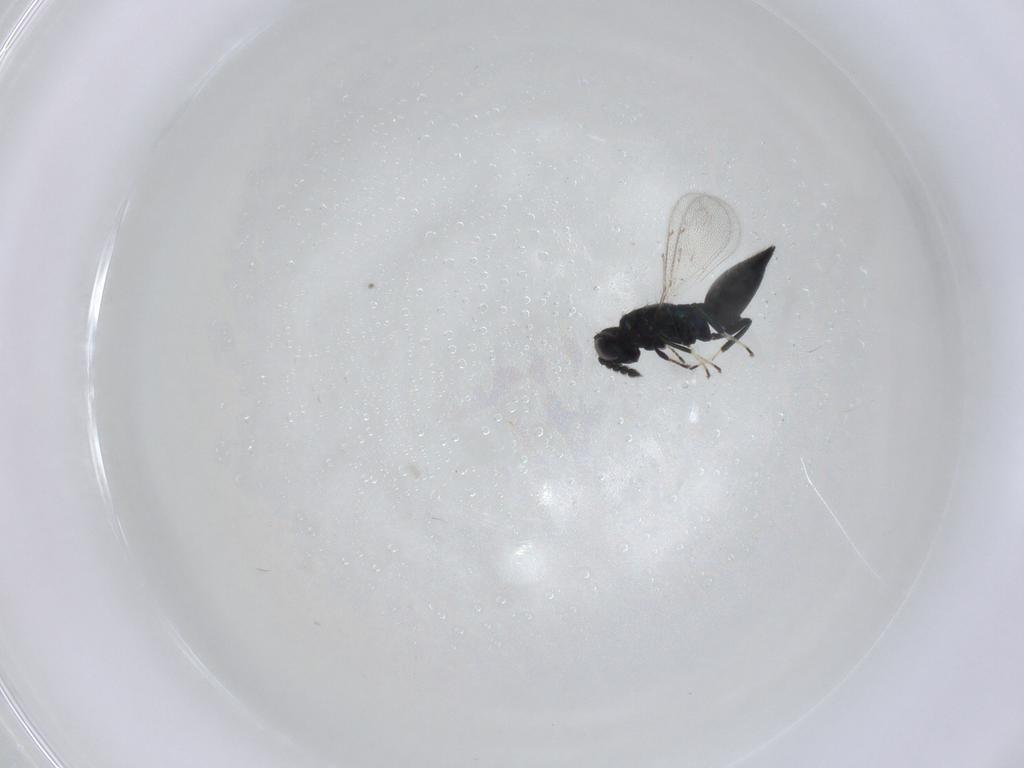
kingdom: Animalia
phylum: Arthropoda
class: Insecta
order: Hymenoptera
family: Eulophidae
